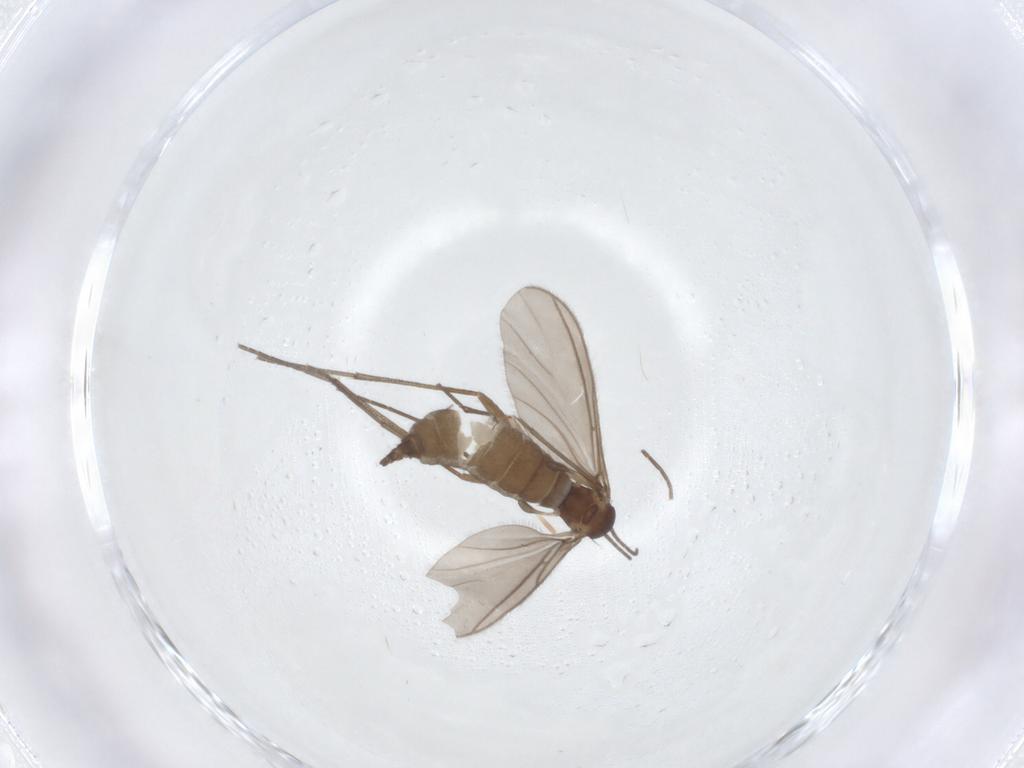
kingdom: Animalia
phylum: Arthropoda
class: Insecta
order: Diptera
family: Sciaridae
